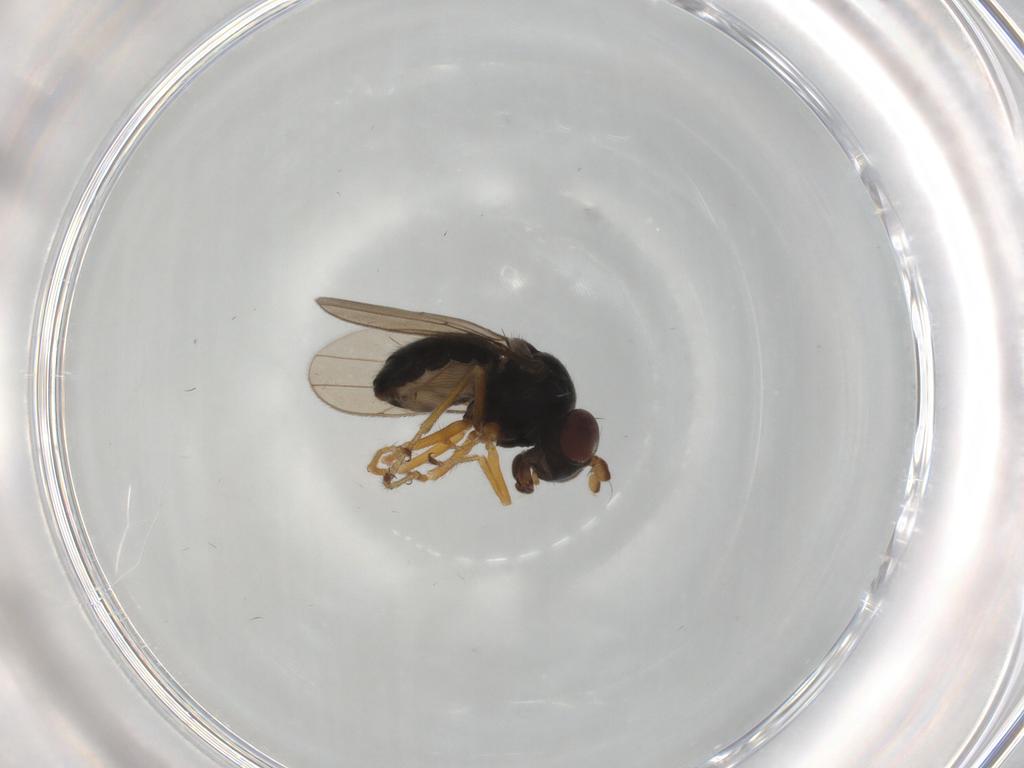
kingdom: Animalia
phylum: Arthropoda
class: Insecta
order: Diptera
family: Ephydridae
